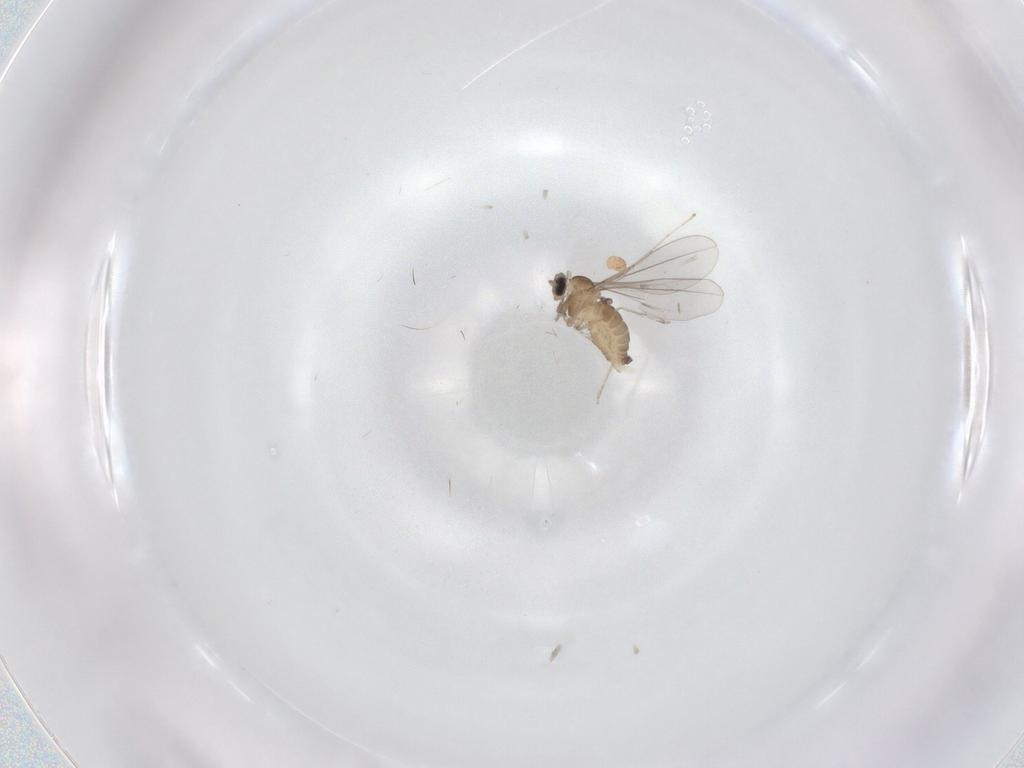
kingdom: Animalia
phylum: Arthropoda
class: Insecta
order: Diptera
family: Cecidomyiidae
